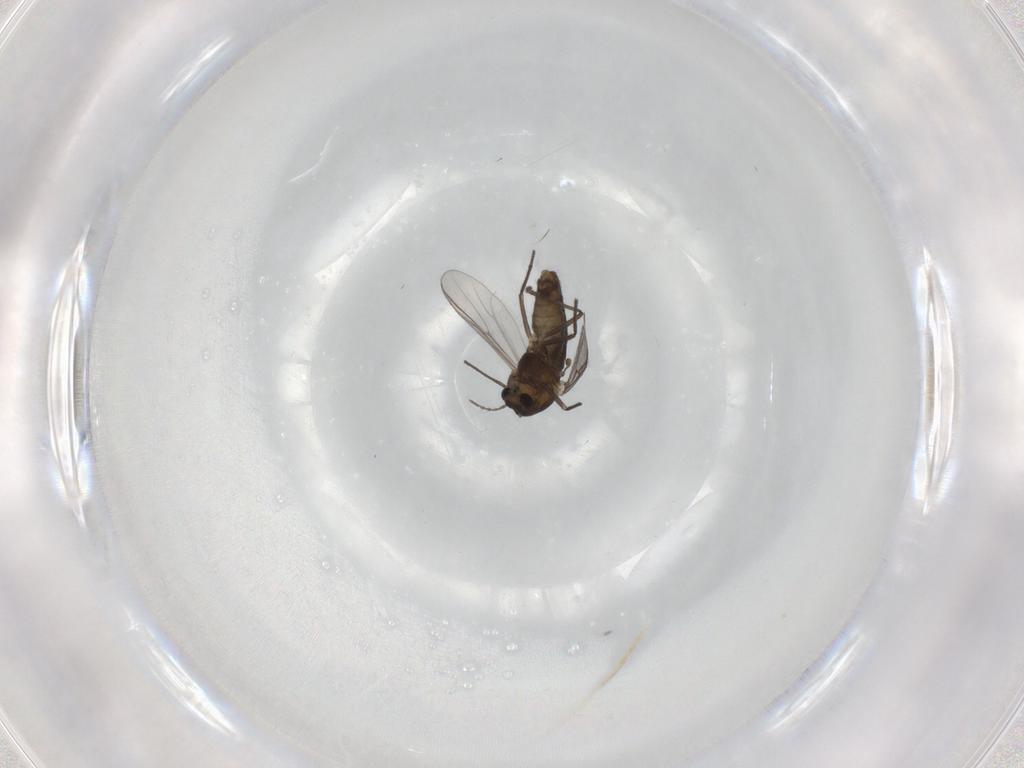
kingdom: Animalia
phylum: Arthropoda
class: Insecta
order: Diptera
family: Chironomidae
